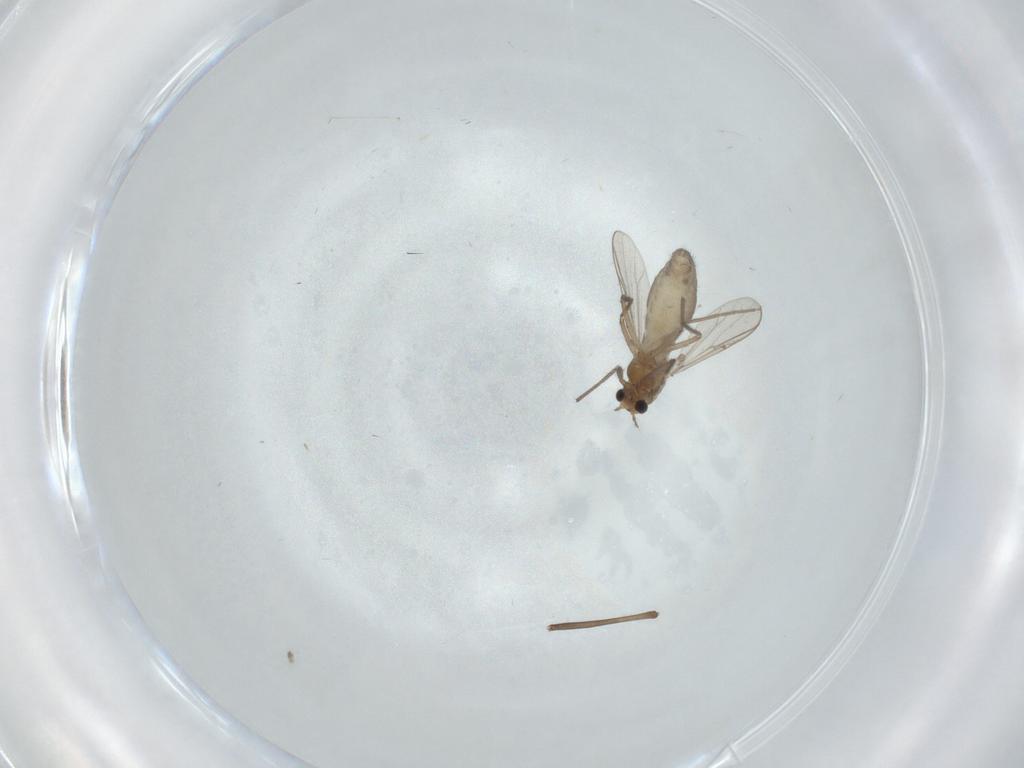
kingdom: Animalia
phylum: Arthropoda
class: Insecta
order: Diptera
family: Chironomidae
